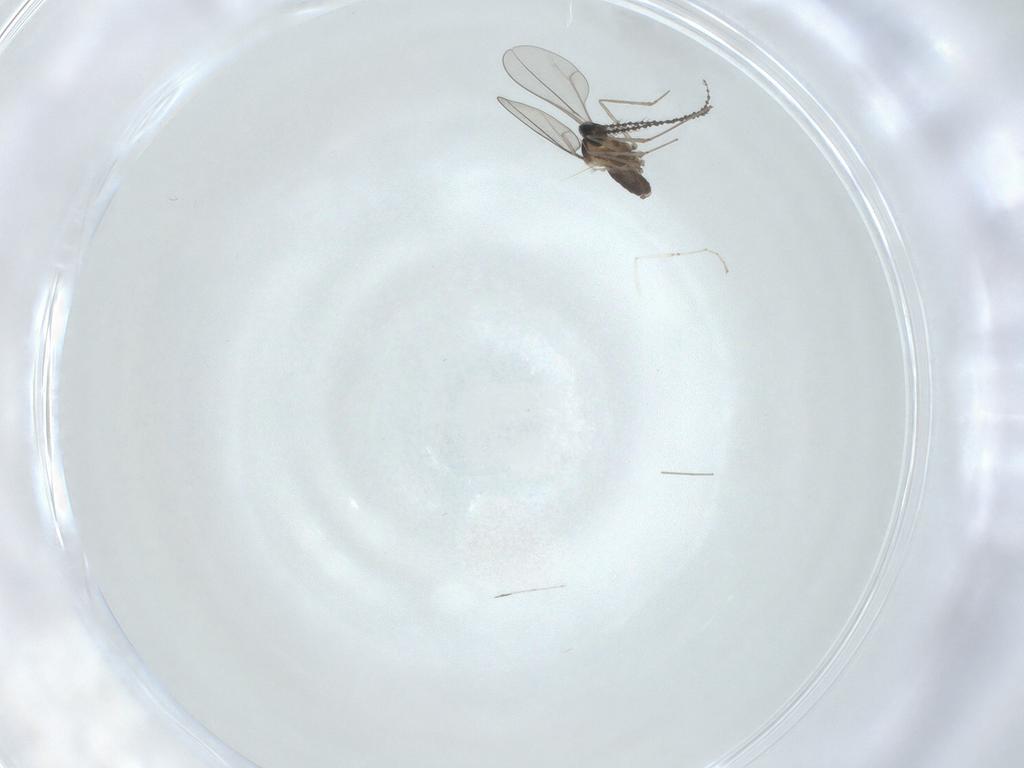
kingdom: Animalia
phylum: Arthropoda
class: Insecta
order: Diptera
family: Cecidomyiidae
